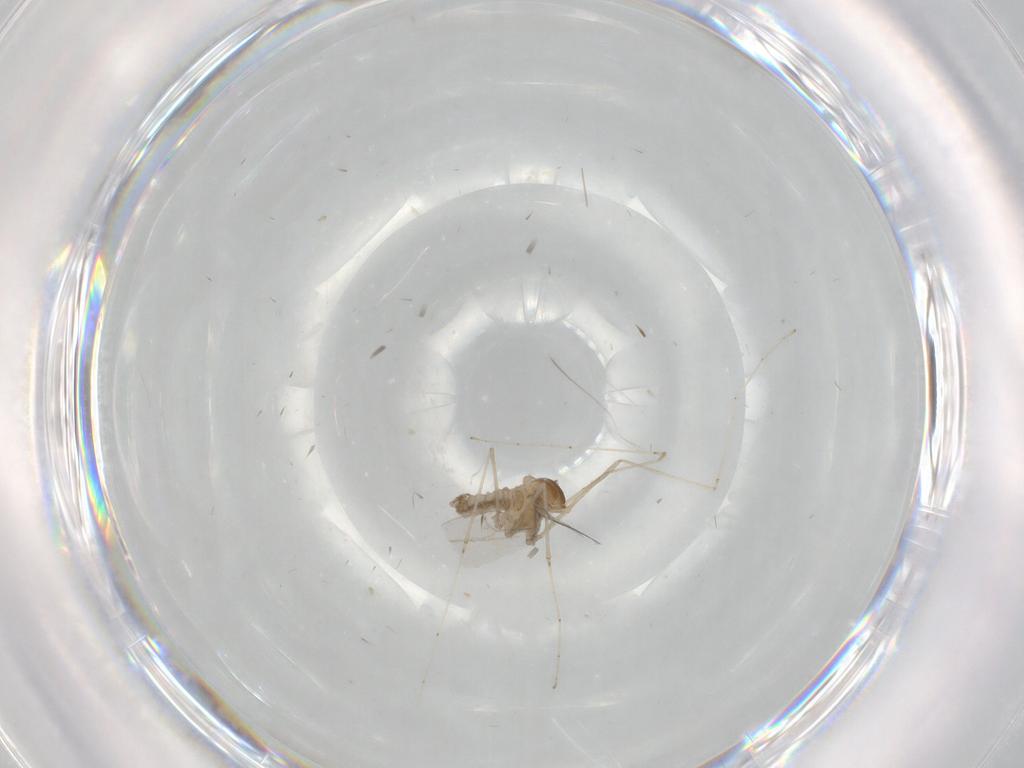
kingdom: Animalia
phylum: Arthropoda
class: Insecta
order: Diptera
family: Cecidomyiidae
